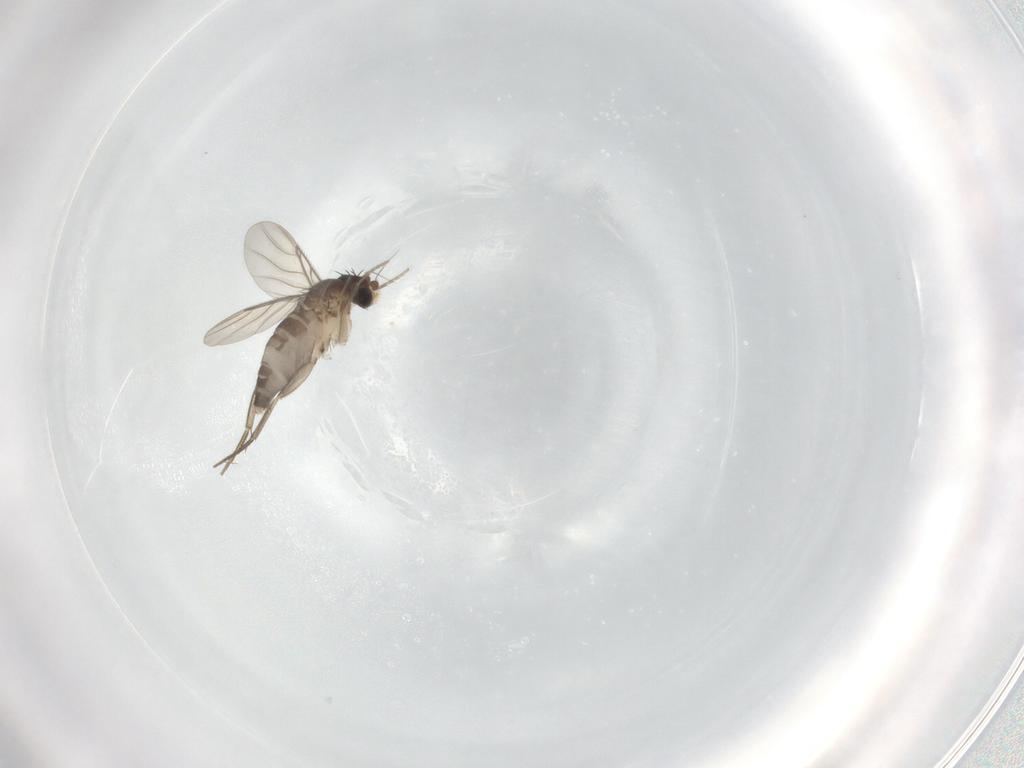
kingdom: Animalia
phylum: Arthropoda
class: Insecta
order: Diptera
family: Phoridae
